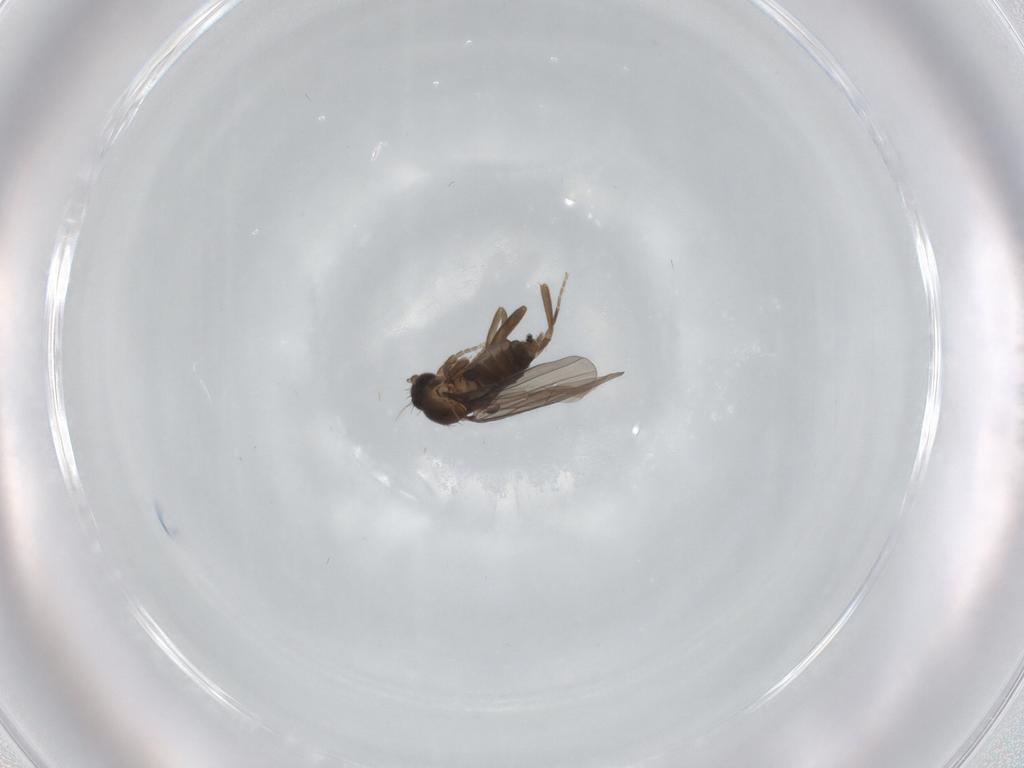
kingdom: Animalia
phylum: Arthropoda
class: Insecta
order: Diptera
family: Phoridae
